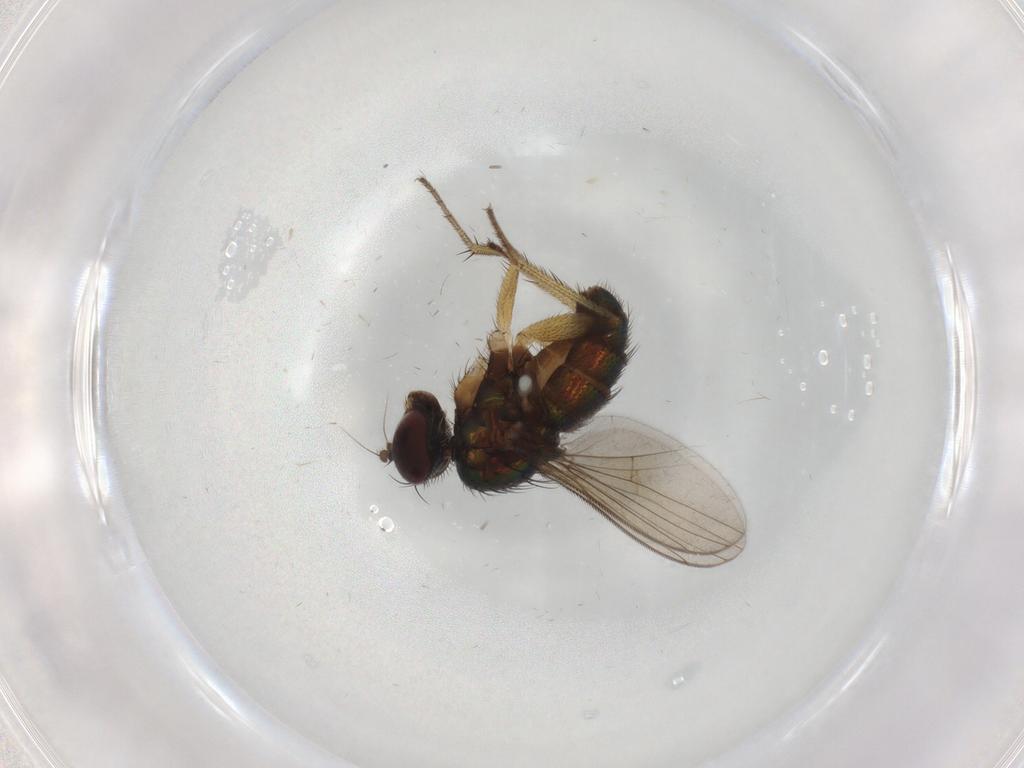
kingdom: Animalia
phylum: Arthropoda
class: Insecta
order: Diptera
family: Dolichopodidae
